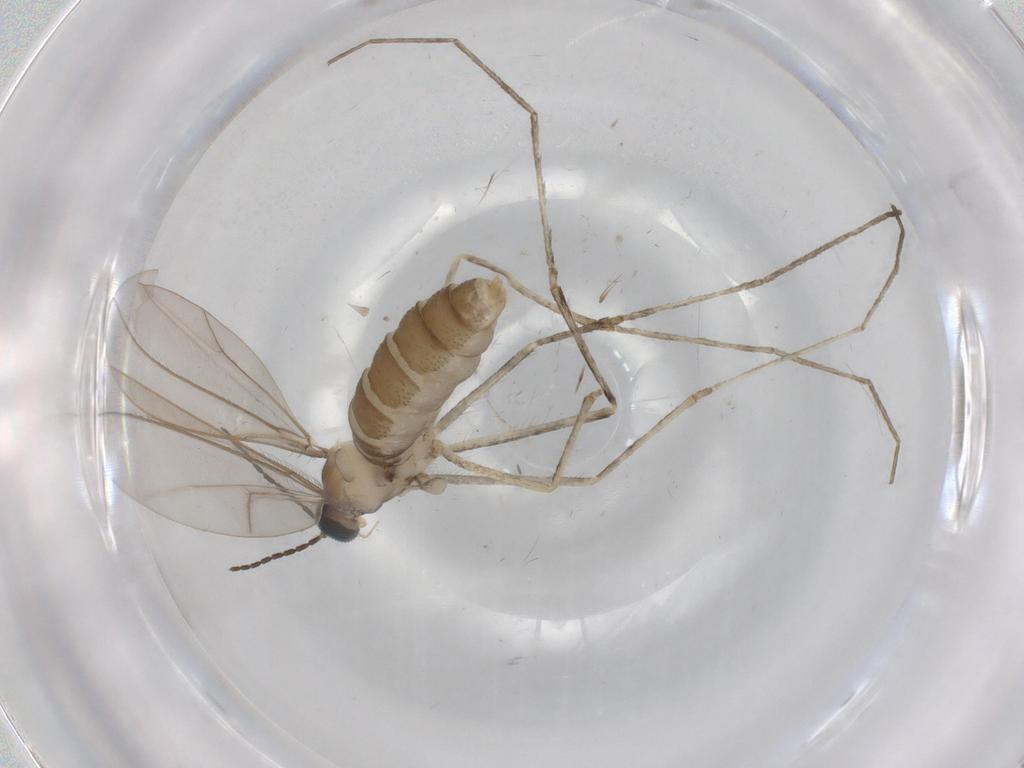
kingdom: Animalia
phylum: Arthropoda
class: Insecta
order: Diptera
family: Cecidomyiidae
